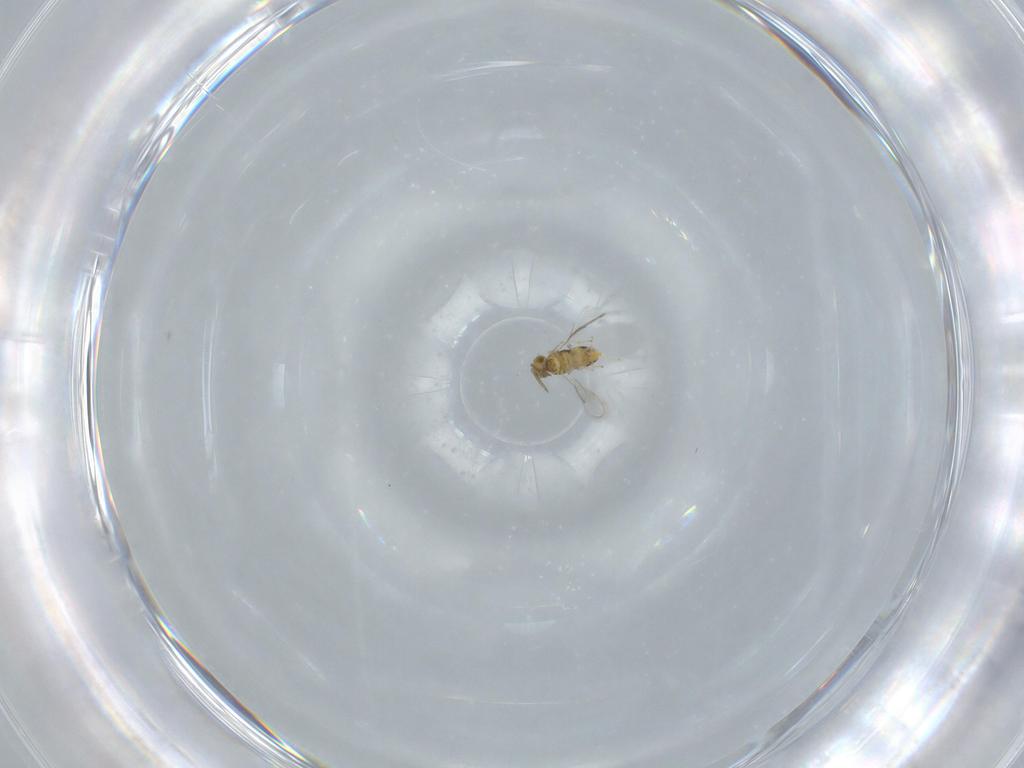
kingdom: Animalia
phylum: Arthropoda
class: Insecta
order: Hymenoptera
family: Aphelinidae
